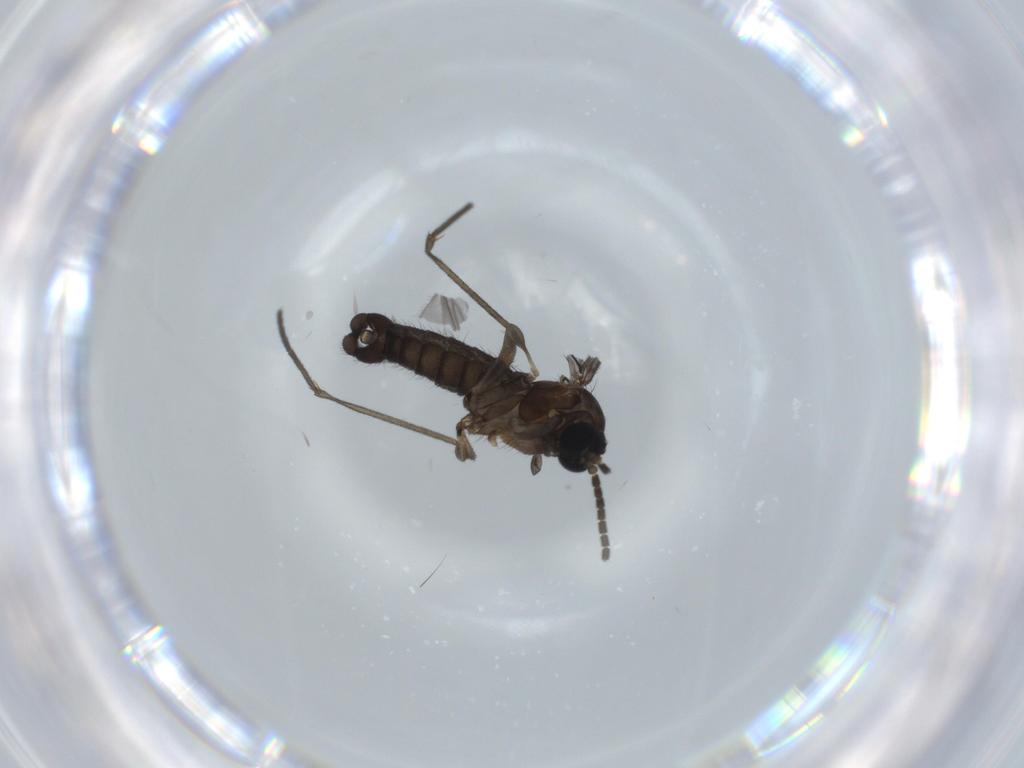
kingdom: Animalia
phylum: Arthropoda
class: Insecta
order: Diptera
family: Sciaridae
